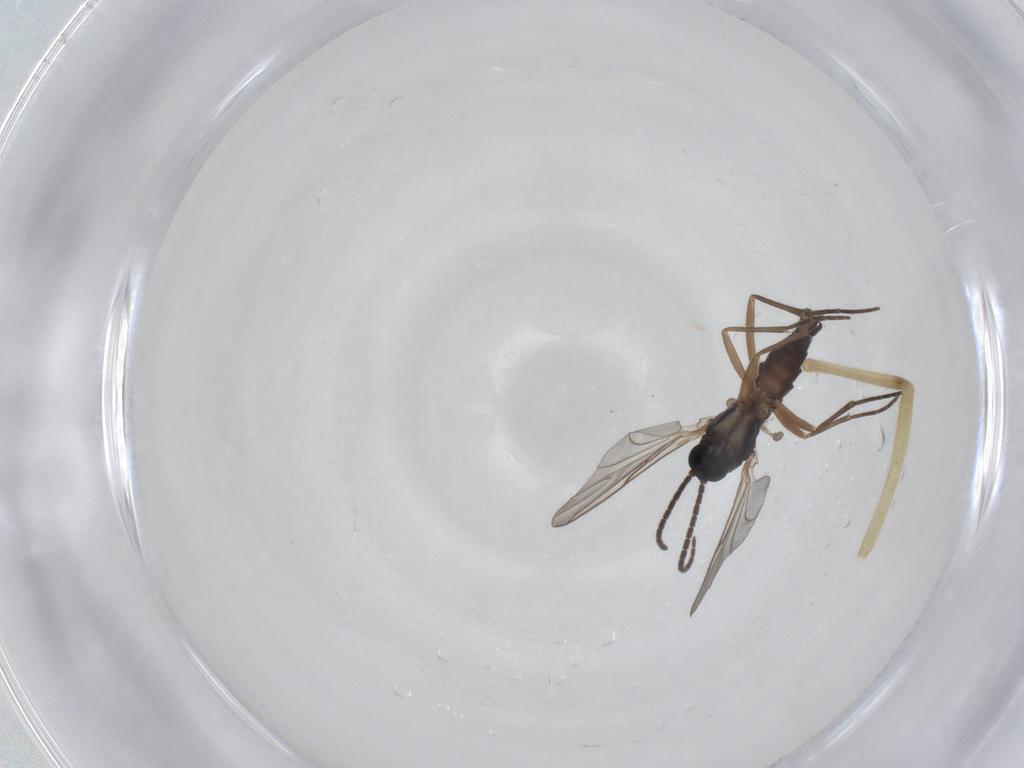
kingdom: Animalia
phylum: Arthropoda
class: Insecta
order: Diptera
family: Sciaridae
